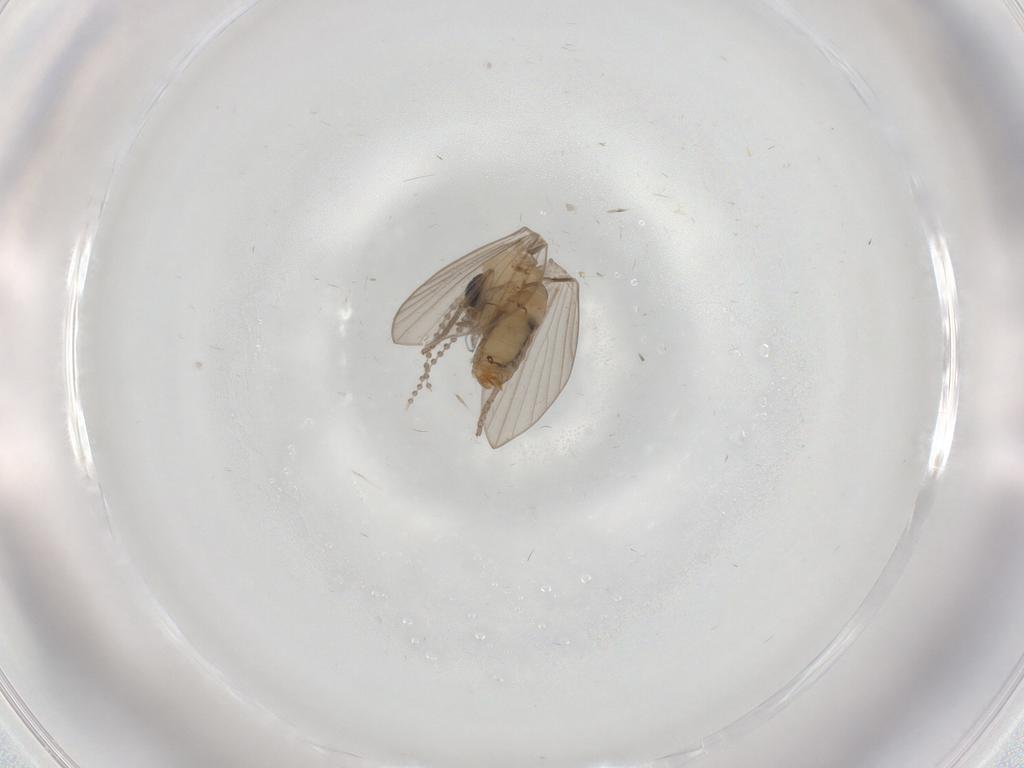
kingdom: Animalia
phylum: Arthropoda
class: Insecta
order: Diptera
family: Psychodidae
